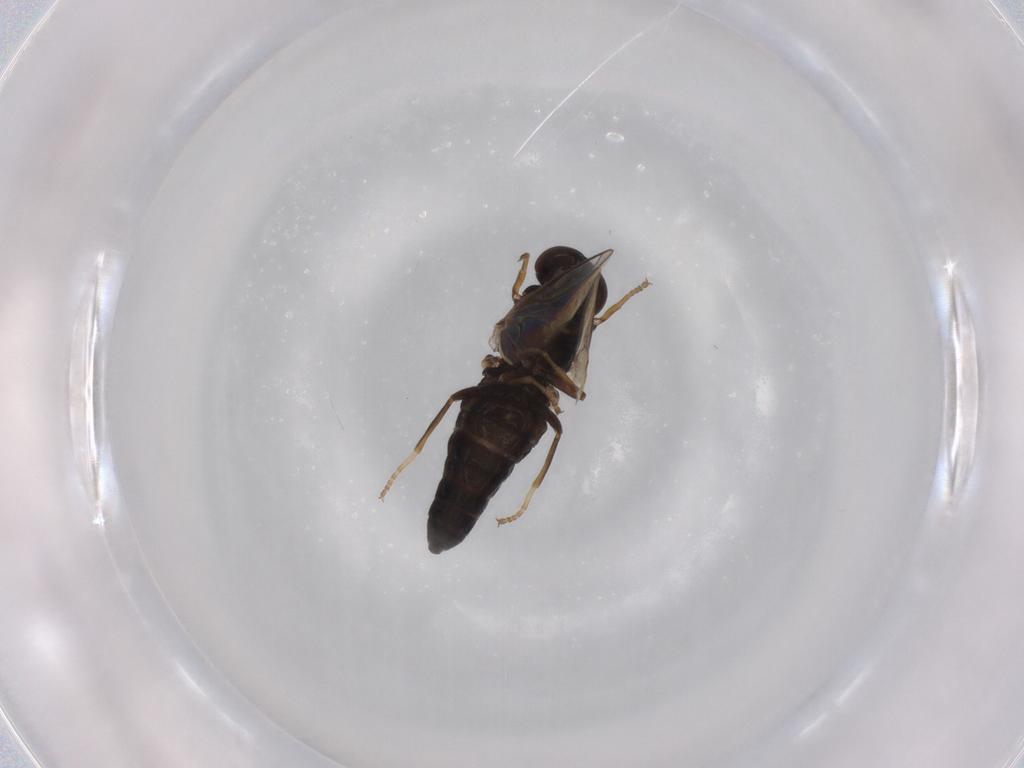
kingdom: Animalia
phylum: Arthropoda
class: Insecta
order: Diptera
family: Scenopinidae
